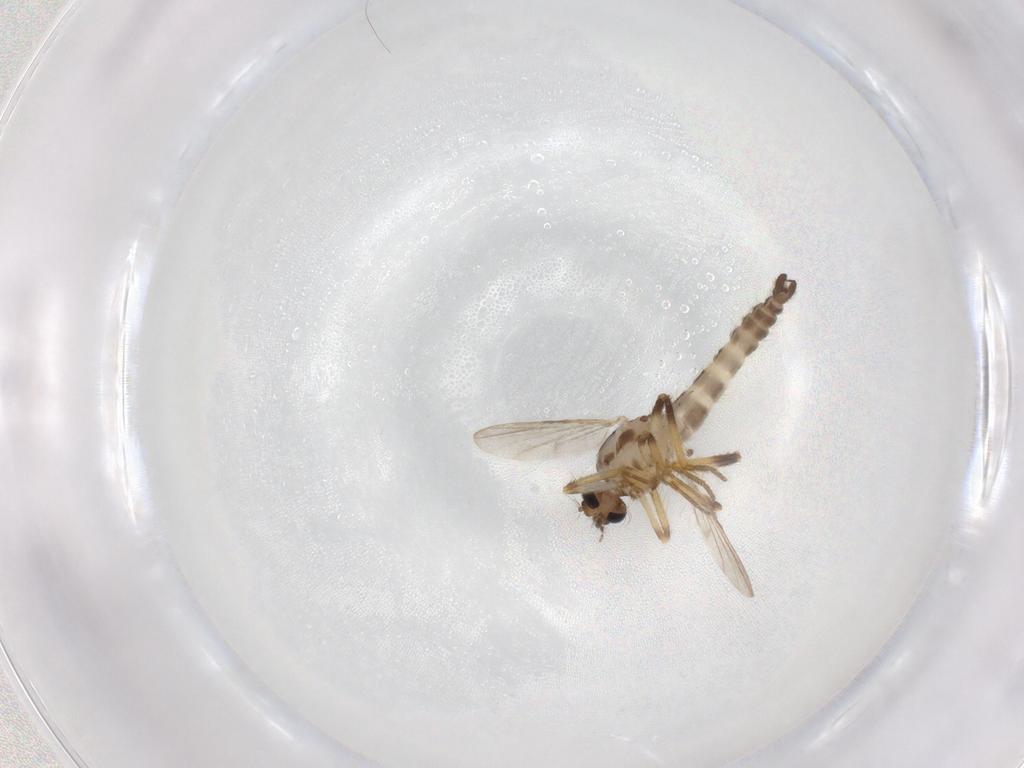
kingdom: Animalia
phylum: Arthropoda
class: Insecta
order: Diptera
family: Ceratopogonidae
